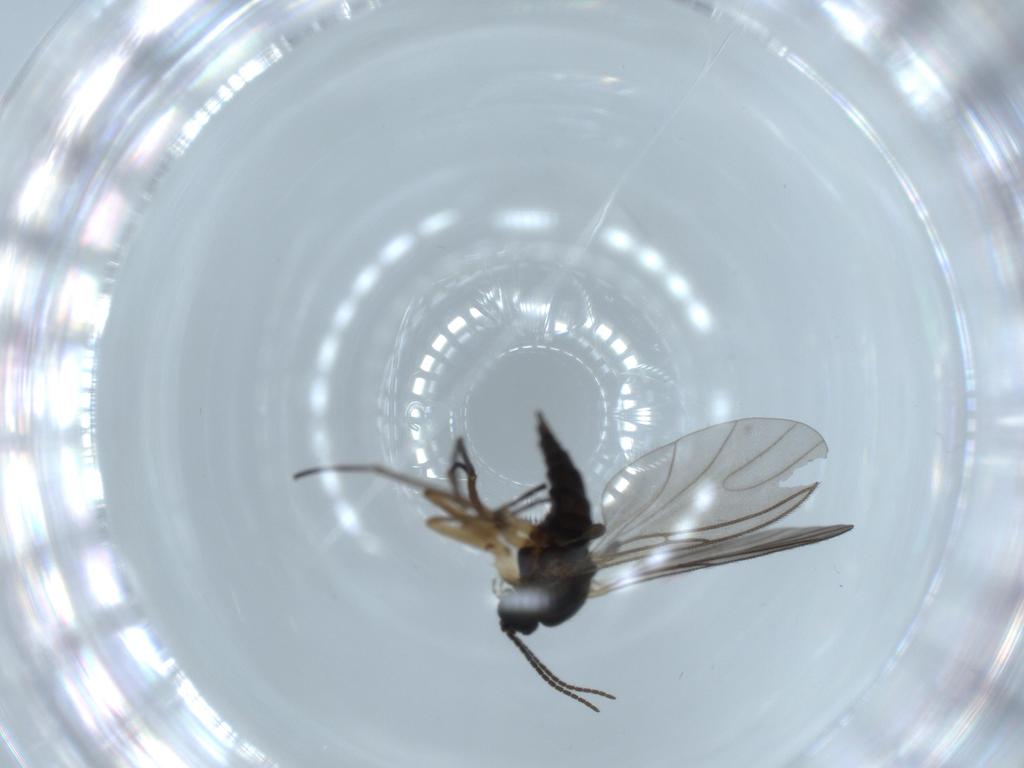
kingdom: Animalia
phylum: Arthropoda
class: Insecta
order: Diptera
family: Sciaridae
